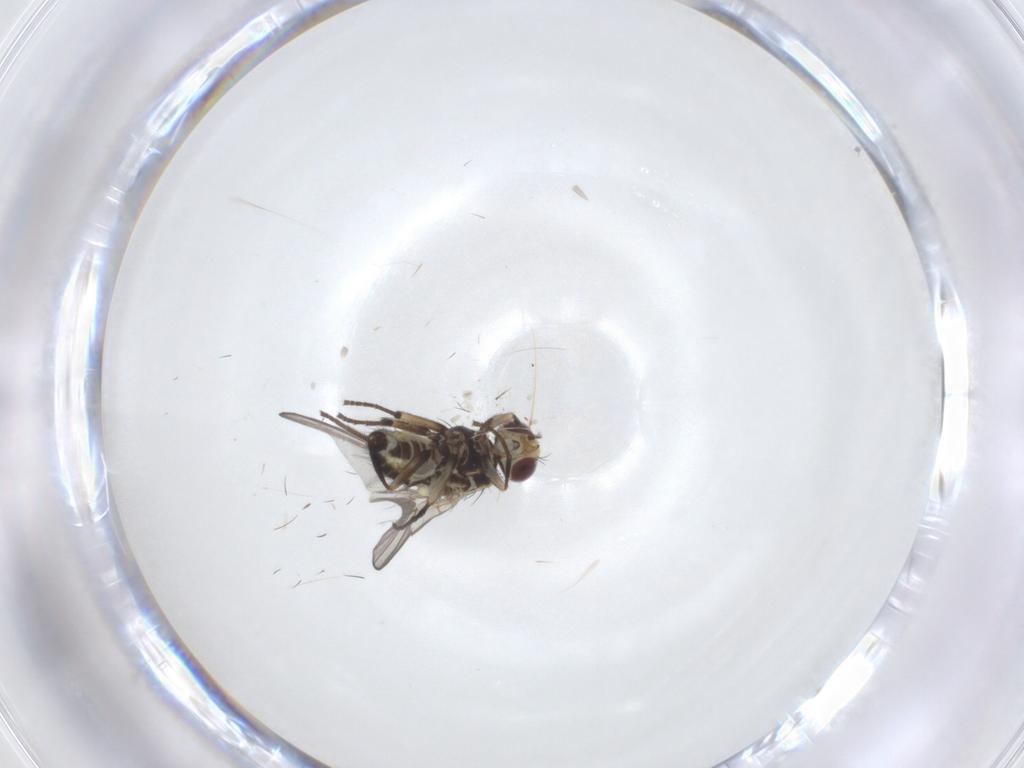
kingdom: Animalia
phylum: Arthropoda
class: Insecta
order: Diptera
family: Agromyzidae
